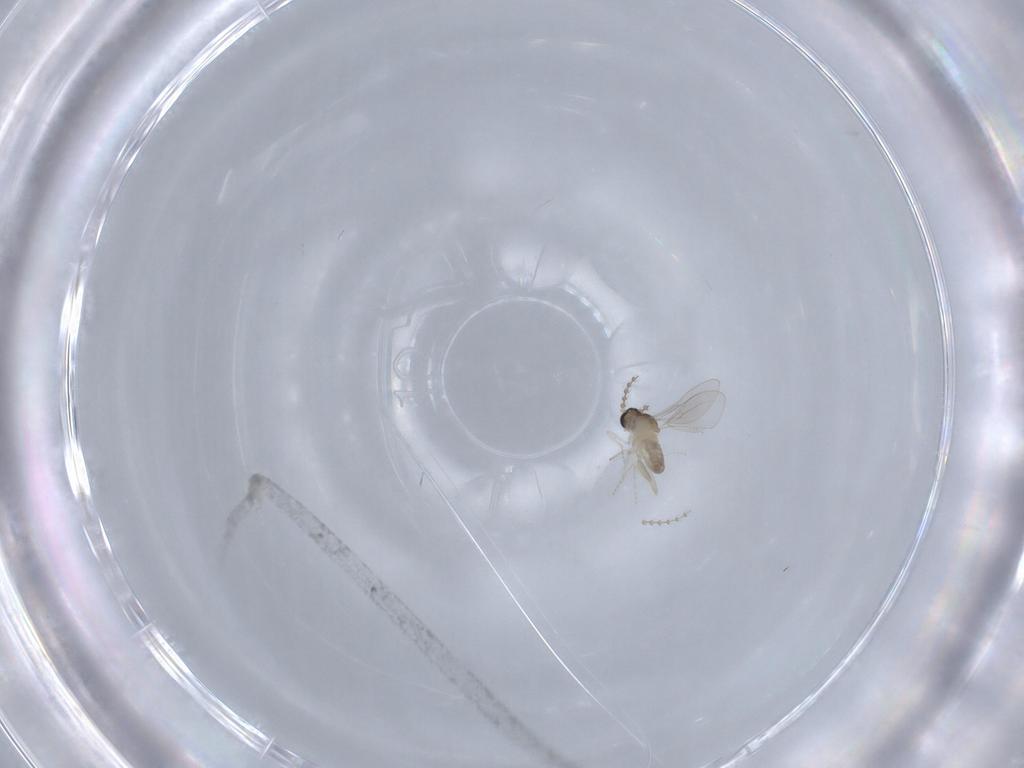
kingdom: Animalia
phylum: Arthropoda
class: Insecta
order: Diptera
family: Cecidomyiidae
